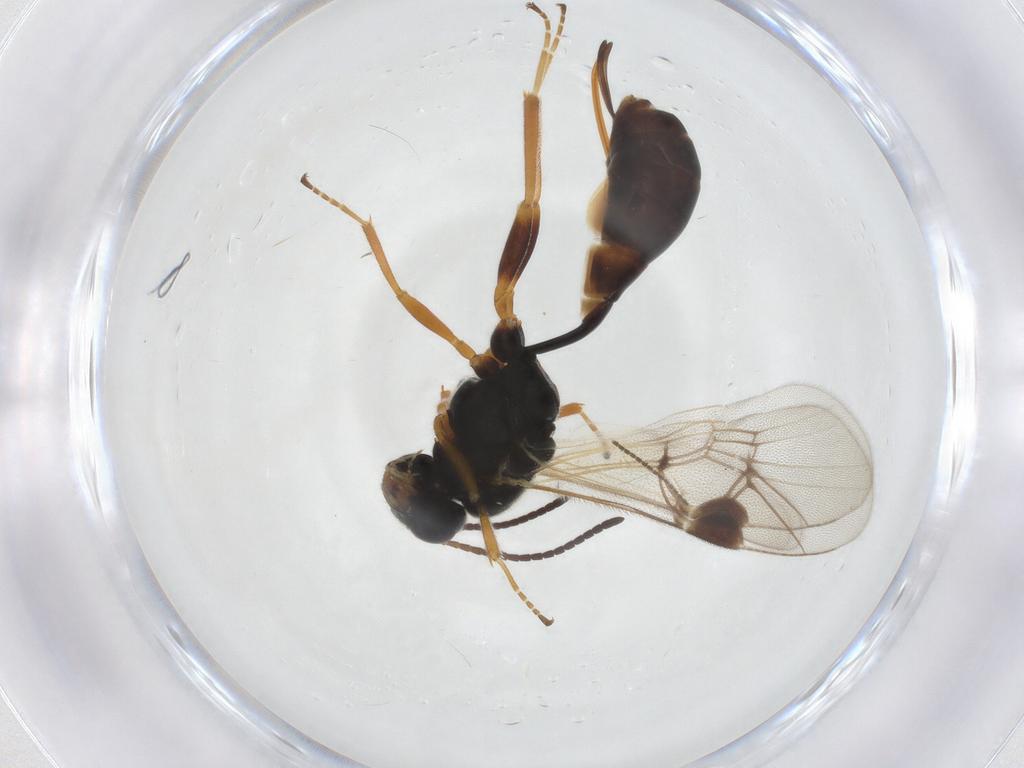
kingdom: Animalia
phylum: Arthropoda
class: Insecta
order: Hymenoptera
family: Ichneumonidae
